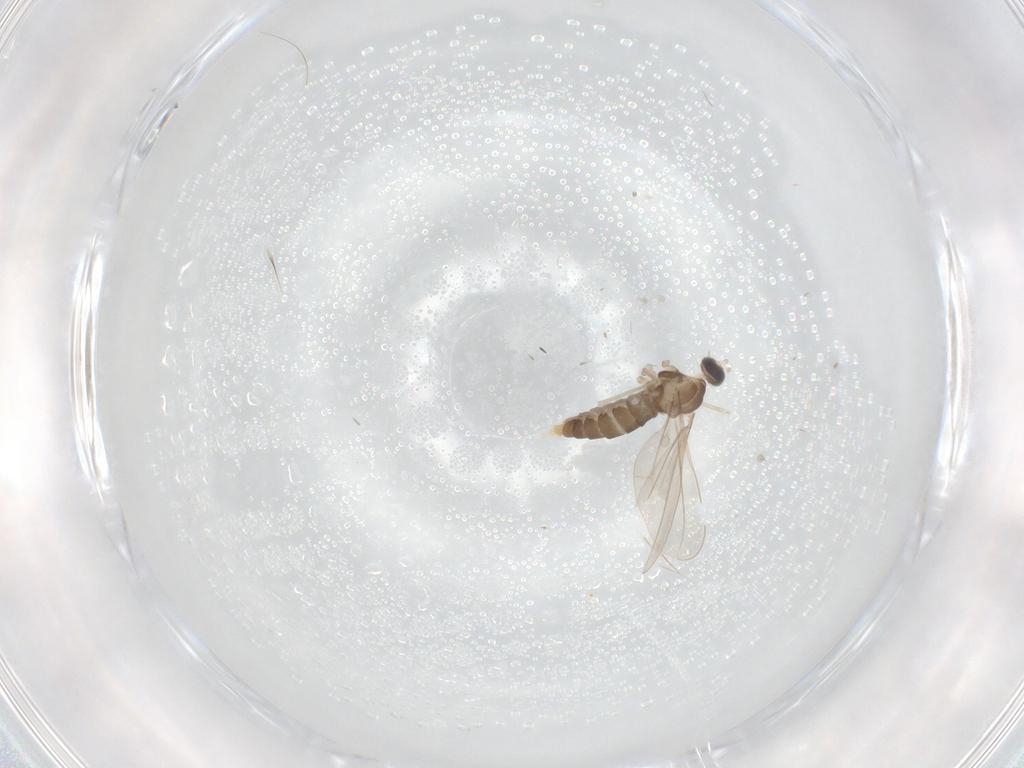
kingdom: Animalia
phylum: Arthropoda
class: Insecta
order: Diptera
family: Cecidomyiidae
